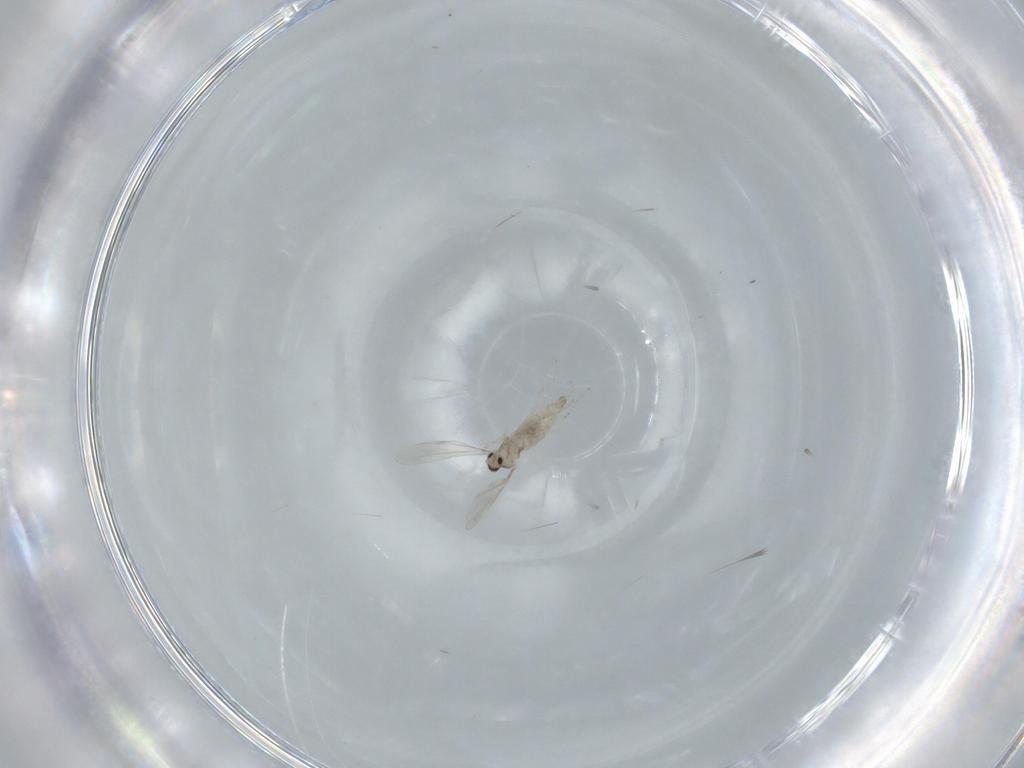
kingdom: Animalia
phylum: Arthropoda
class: Insecta
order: Diptera
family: Cecidomyiidae
